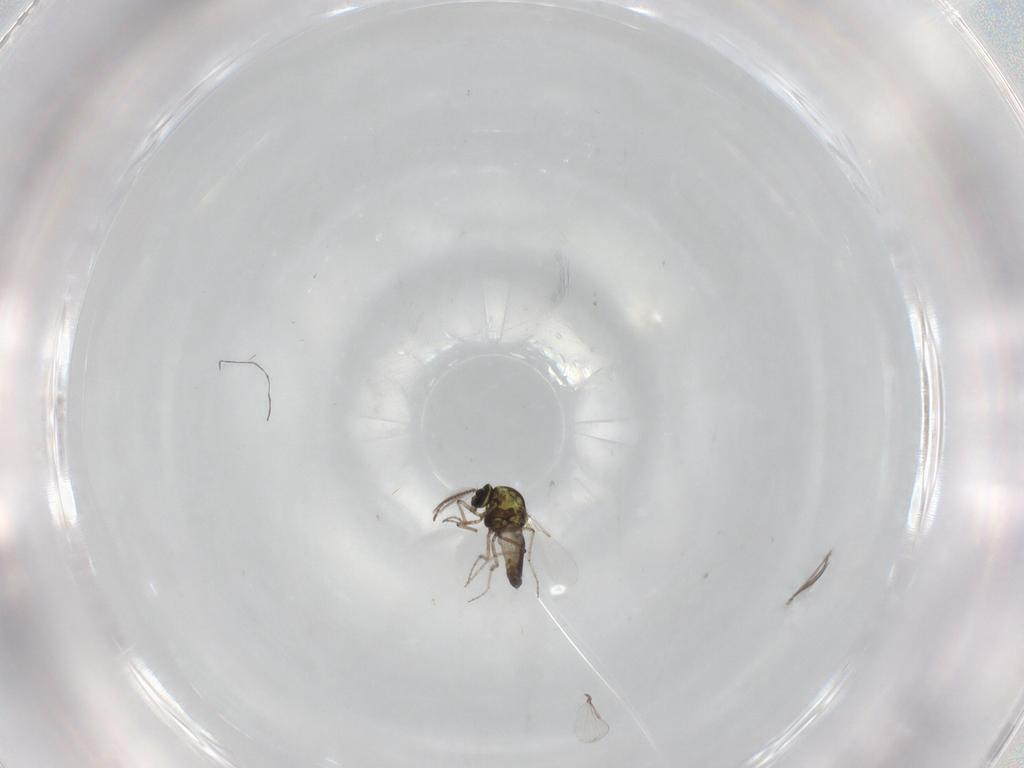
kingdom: Animalia
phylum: Arthropoda
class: Insecta
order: Diptera
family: Ceratopogonidae
